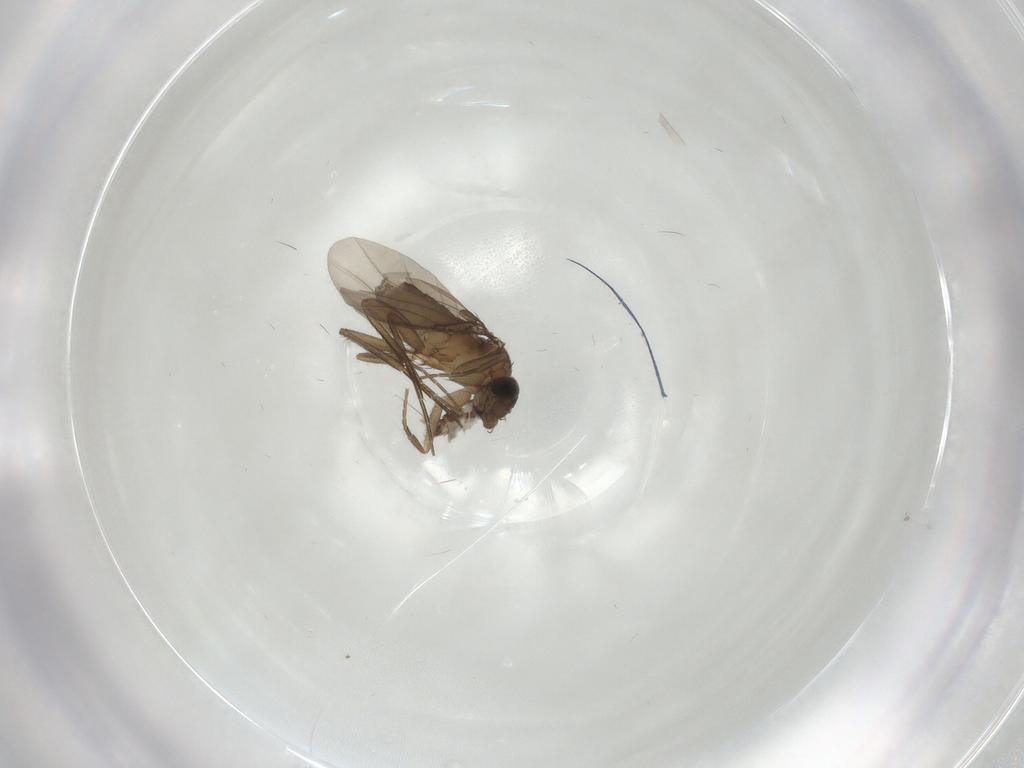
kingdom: Animalia
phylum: Arthropoda
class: Insecta
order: Diptera
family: Phoridae
